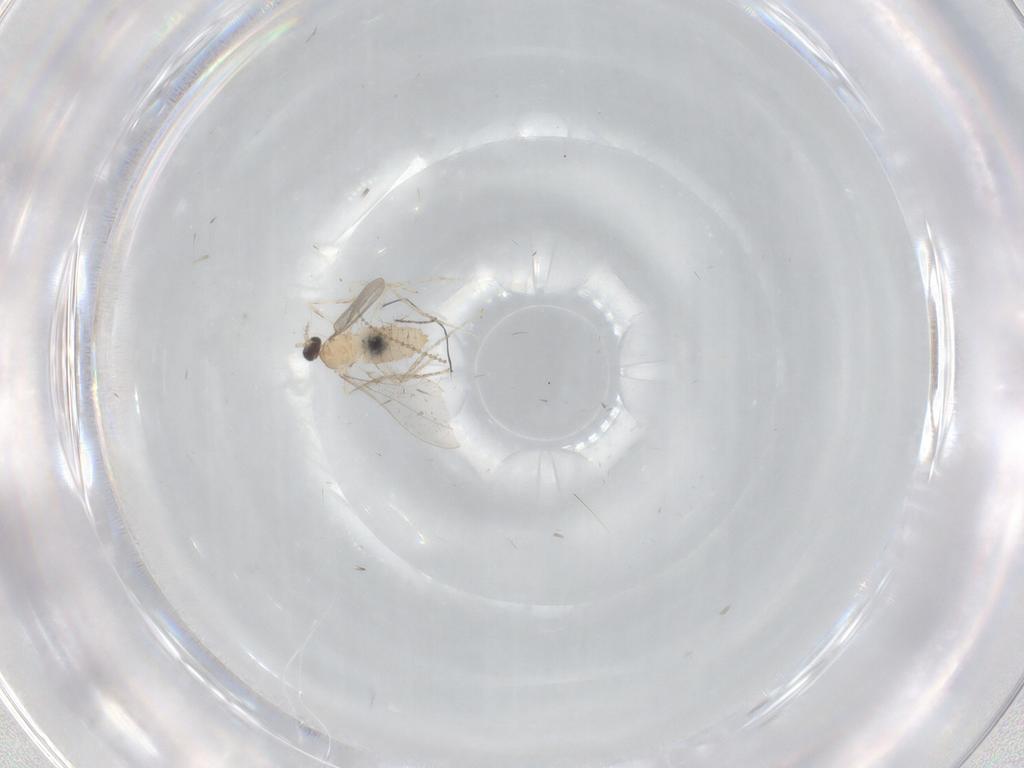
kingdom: Animalia
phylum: Arthropoda
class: Insecta
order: Diptera
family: Cecidomyiidae
